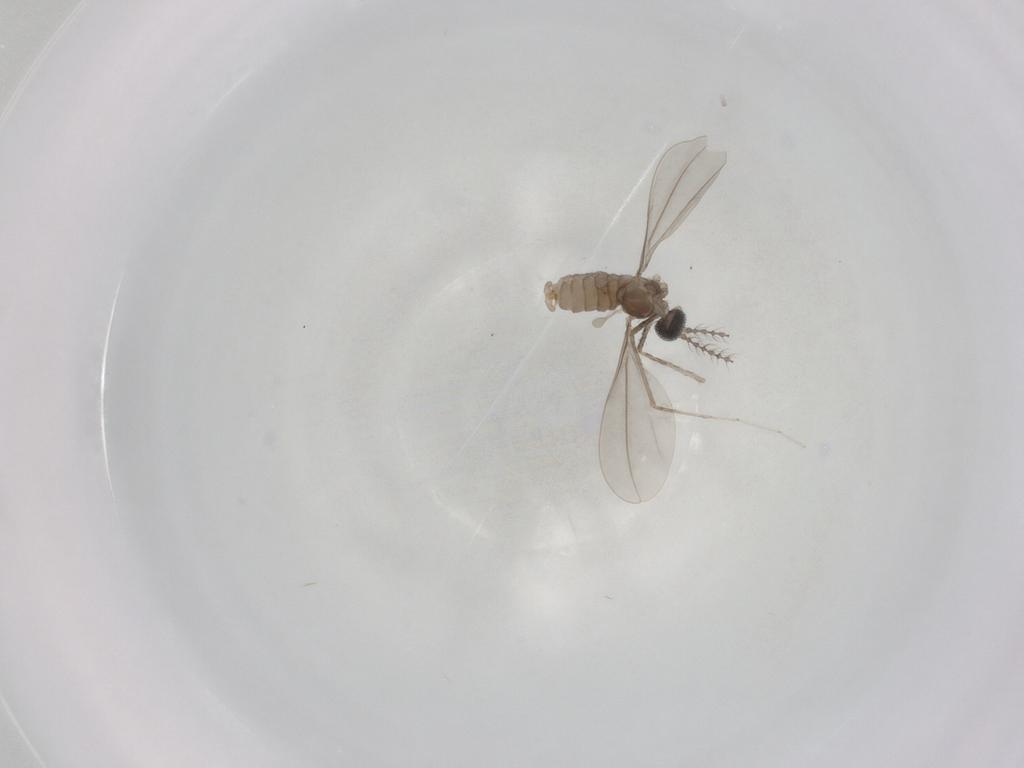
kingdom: Animalia
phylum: Arthropoda
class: Insecta
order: Diptera
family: Cecidomyiidae
